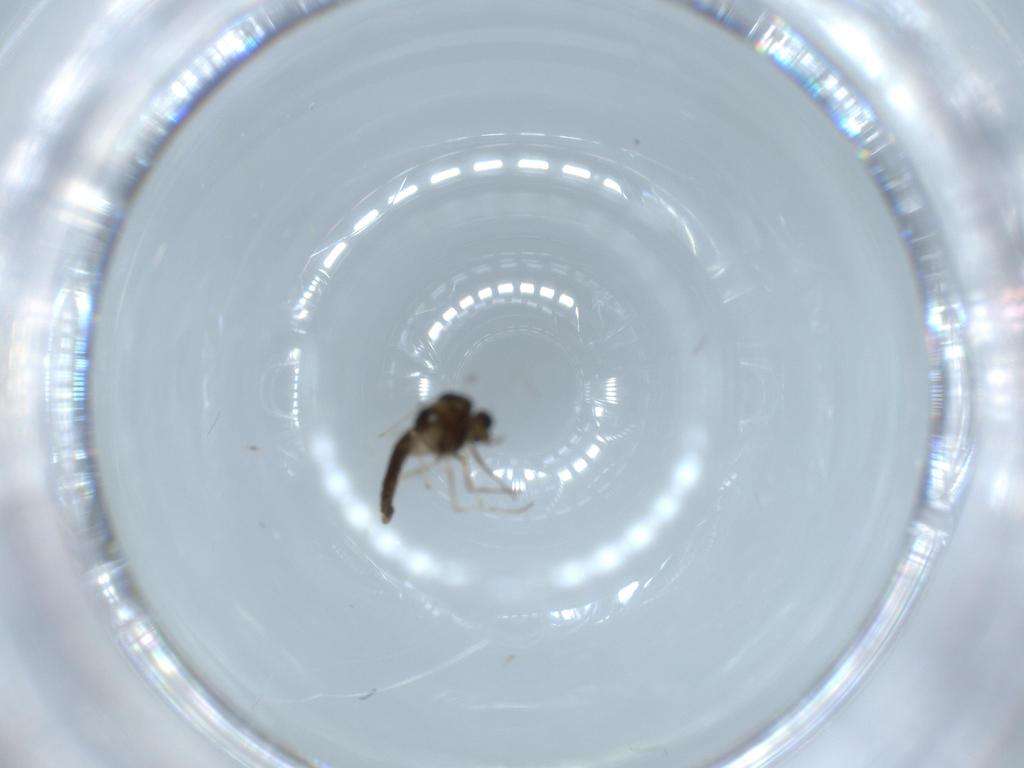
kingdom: Animalia
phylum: Arthropoda
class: Insecta
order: Diptera
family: Chironomidae
